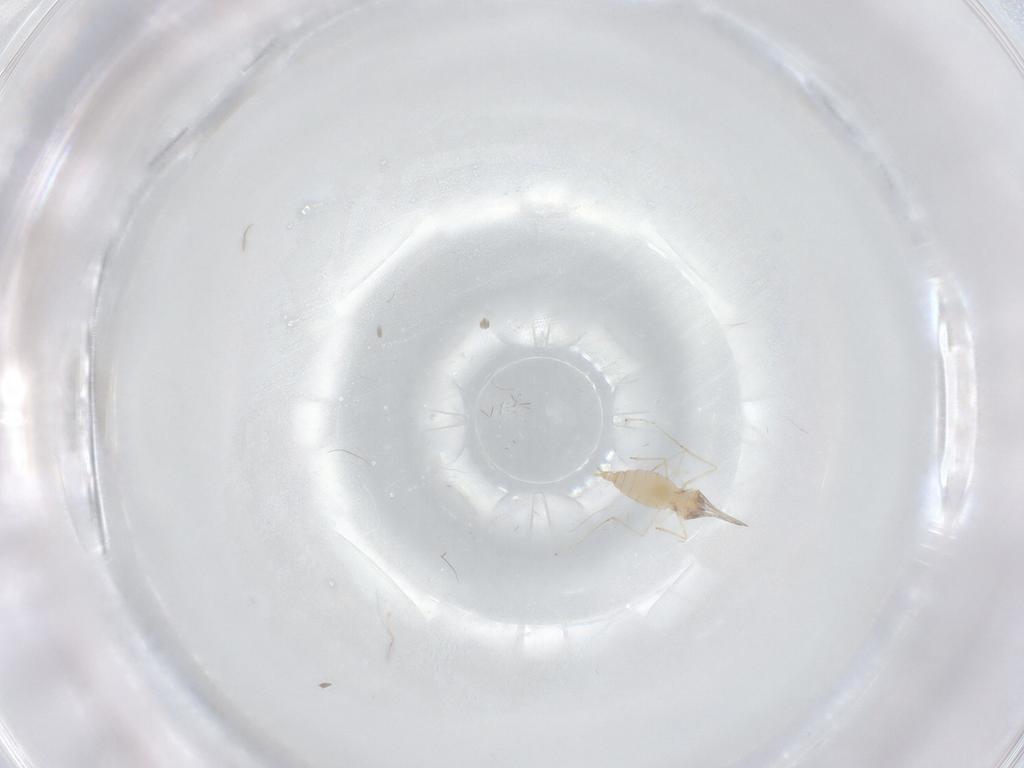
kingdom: Animalia
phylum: Arthropoda
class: Insecta
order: Diptera
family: Cecidomyiidae
